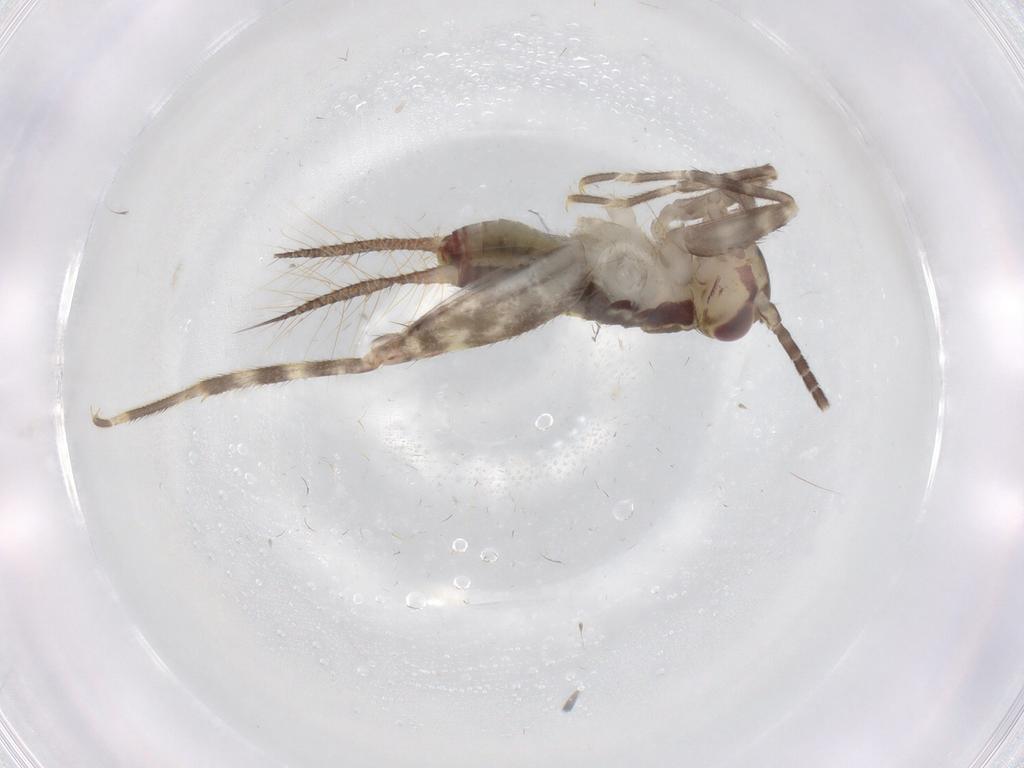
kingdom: Animalia
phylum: Arthropoda
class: Insecta
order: Orthoptera
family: Gryllidae
